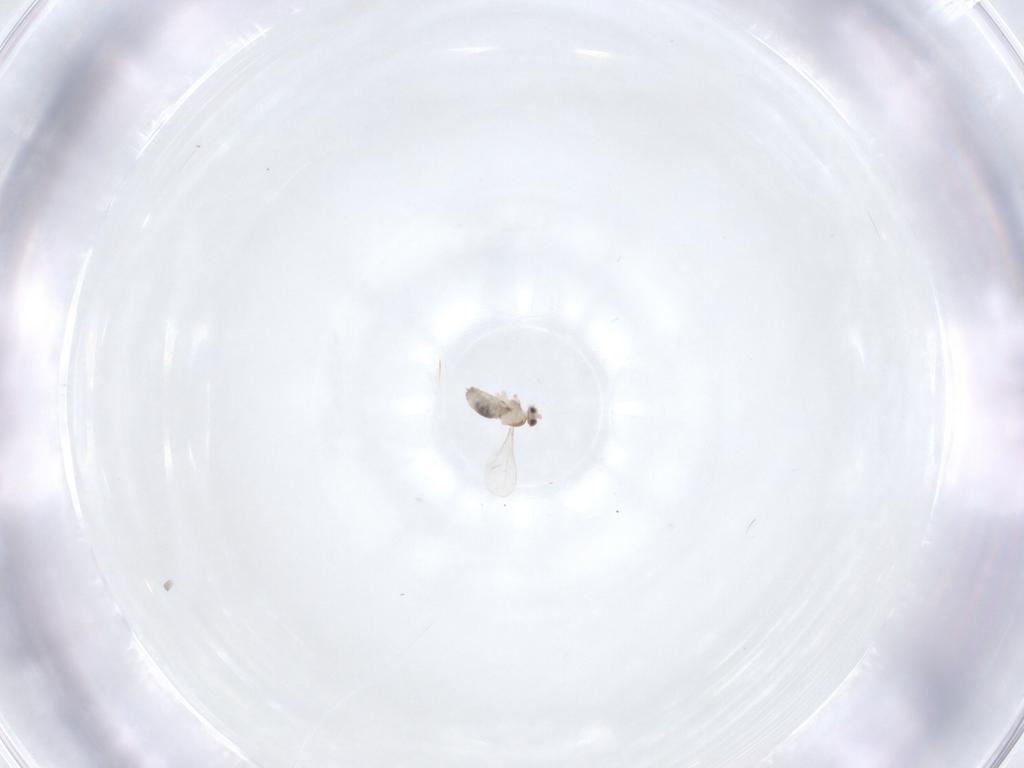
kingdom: Animalia
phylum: Arthropoda
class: Insecta
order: Diptera
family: Cecidomyiidae
